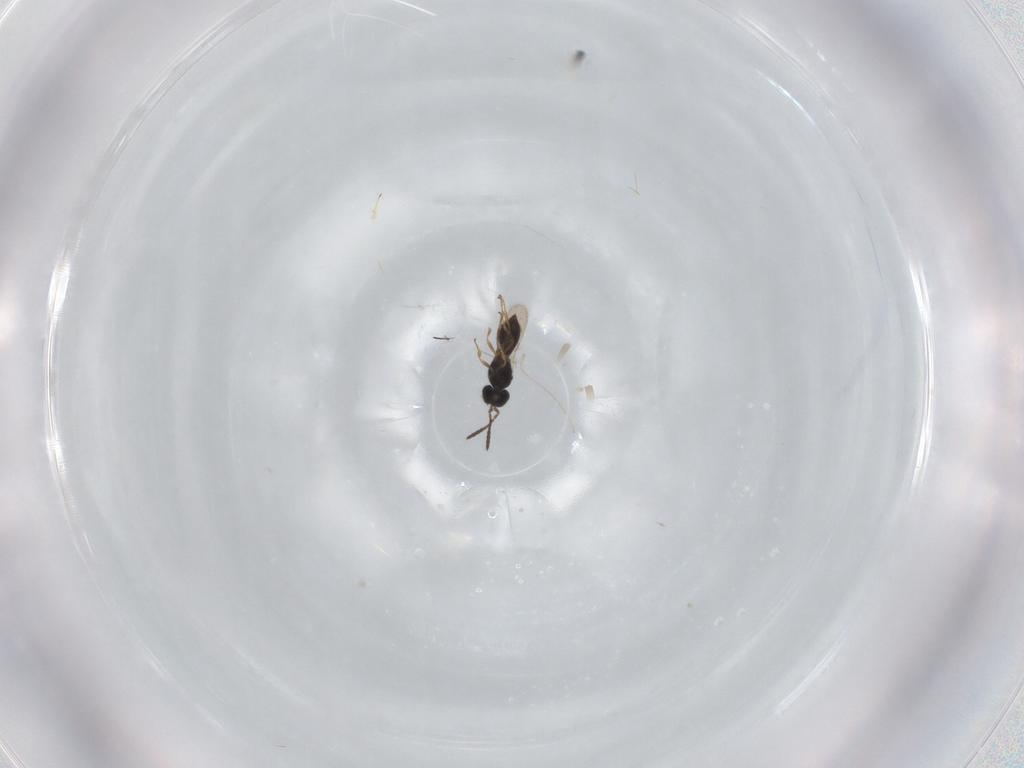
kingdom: Animalia
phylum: Arthropoda
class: Insecta
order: Hymenoptera
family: Scelionidae
